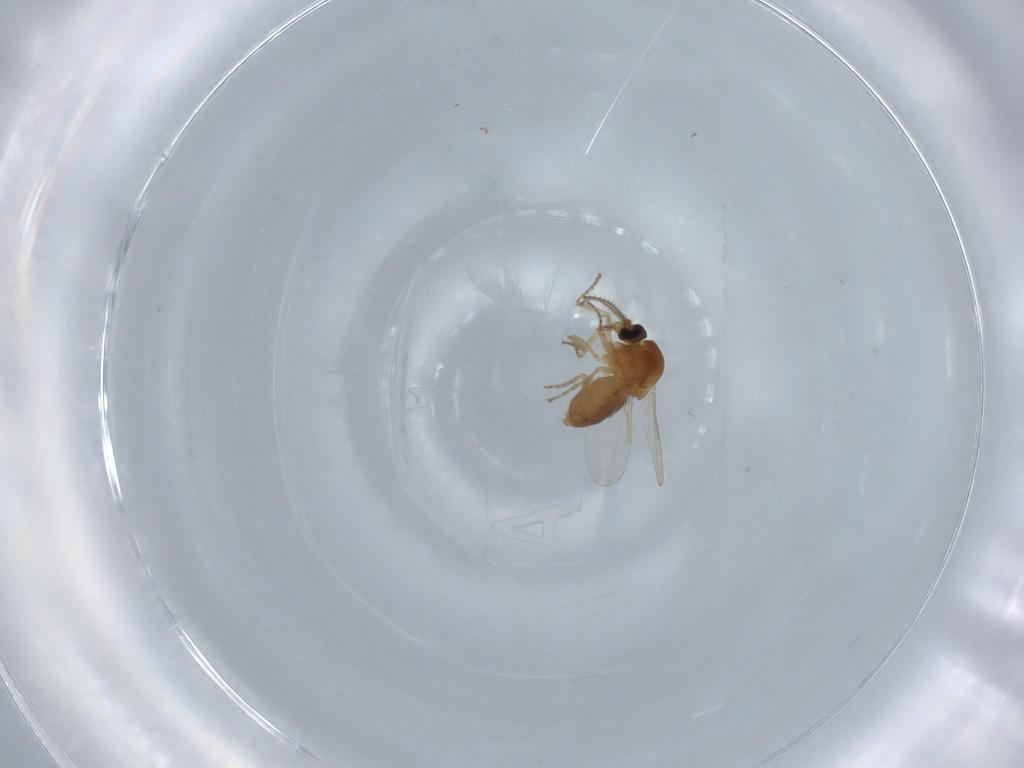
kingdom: Animalia
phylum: Arthropoda
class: Insecta
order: Diptera
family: Ceratopogonidae
